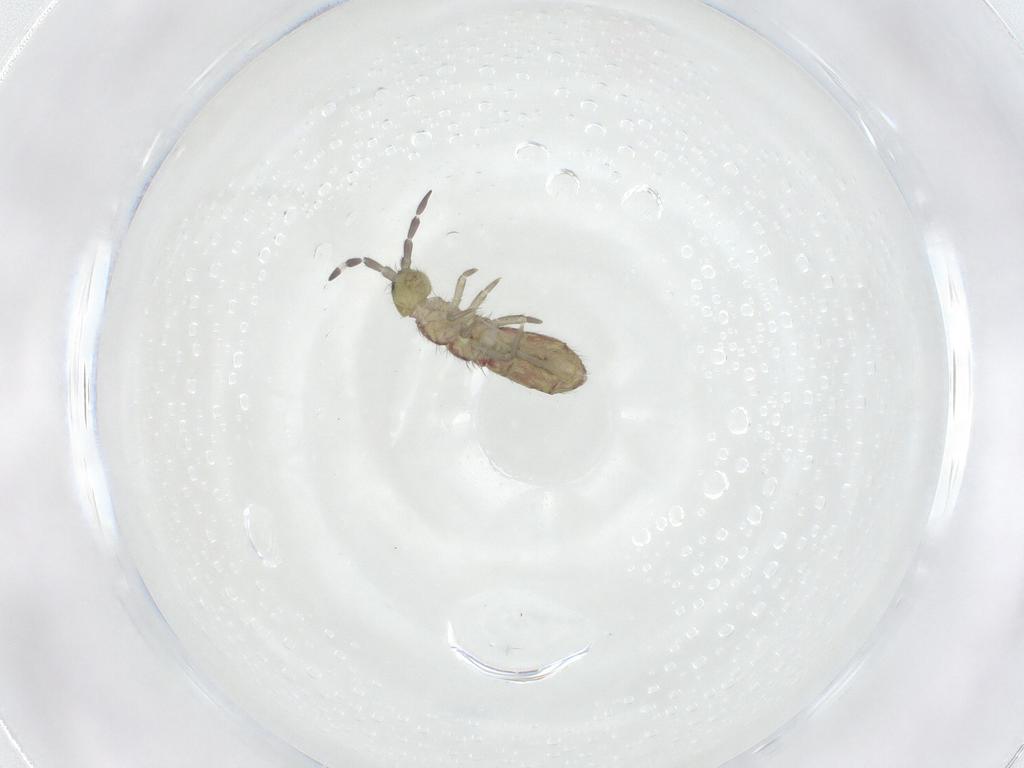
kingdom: Animalia
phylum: Arthropoda
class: Collembola
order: Entomobryomorpha
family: Isotomidae
